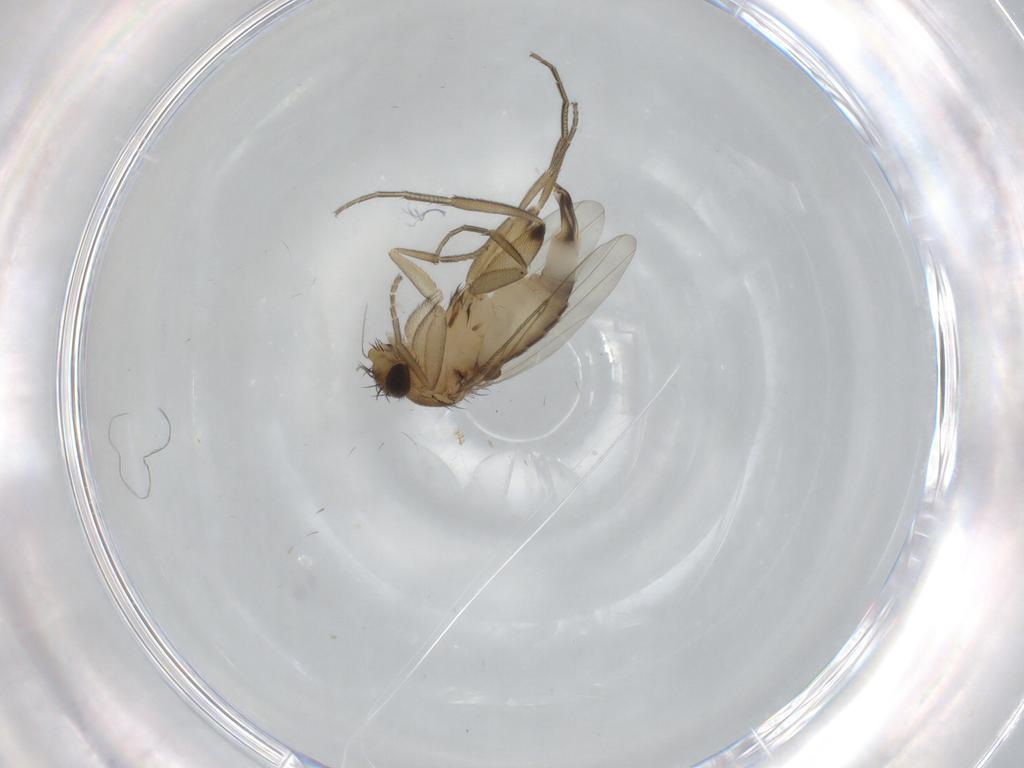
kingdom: Animalia
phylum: Arthropoda
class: Insecta
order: Diptera
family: Phoridae
